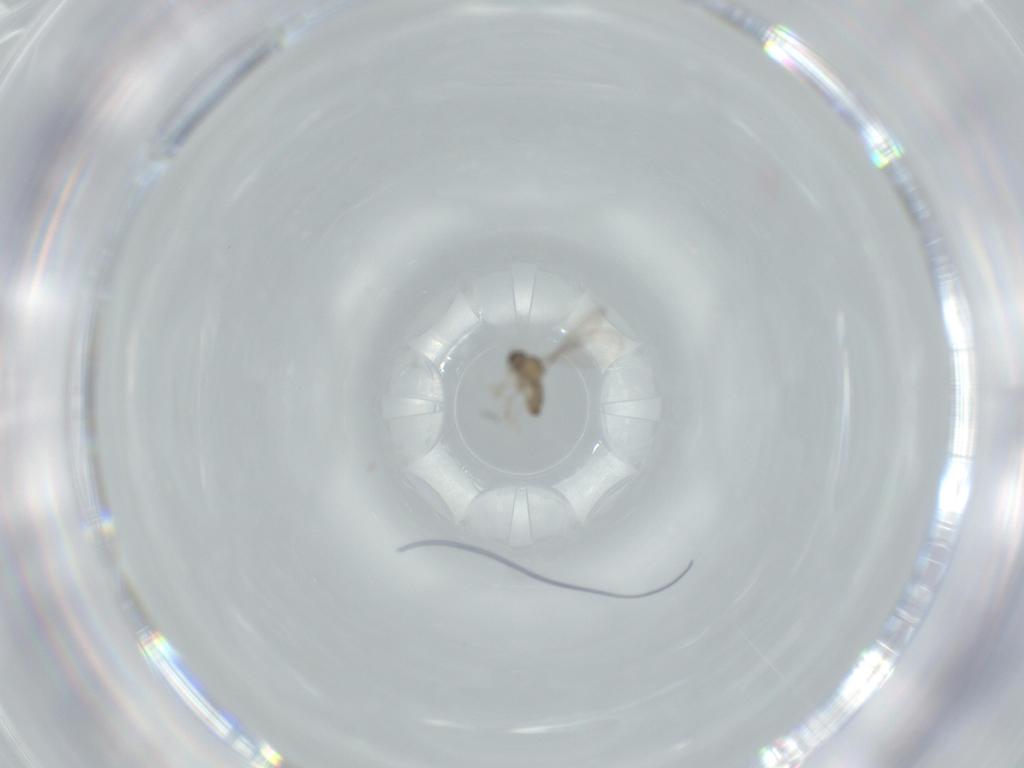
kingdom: Animalia
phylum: Arthropoda
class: Insecta
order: Diptera
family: Cecidomyiidae
